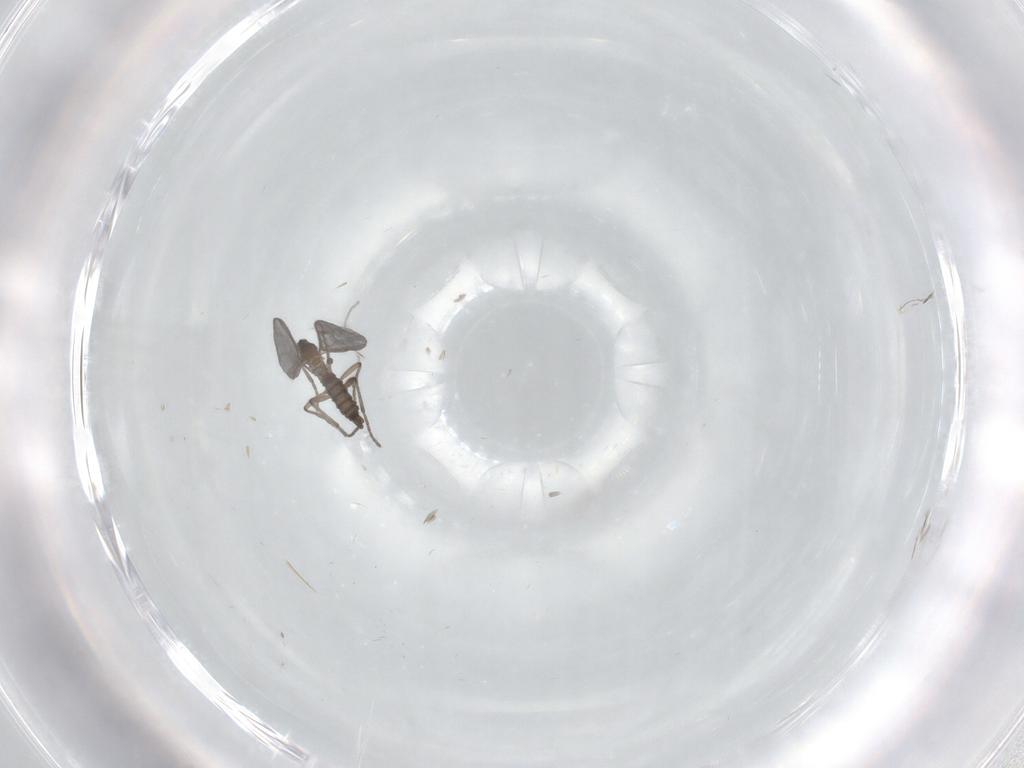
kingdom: Animalia
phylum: Arthropoda
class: Insecta
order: Diptera
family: Sciaridae
